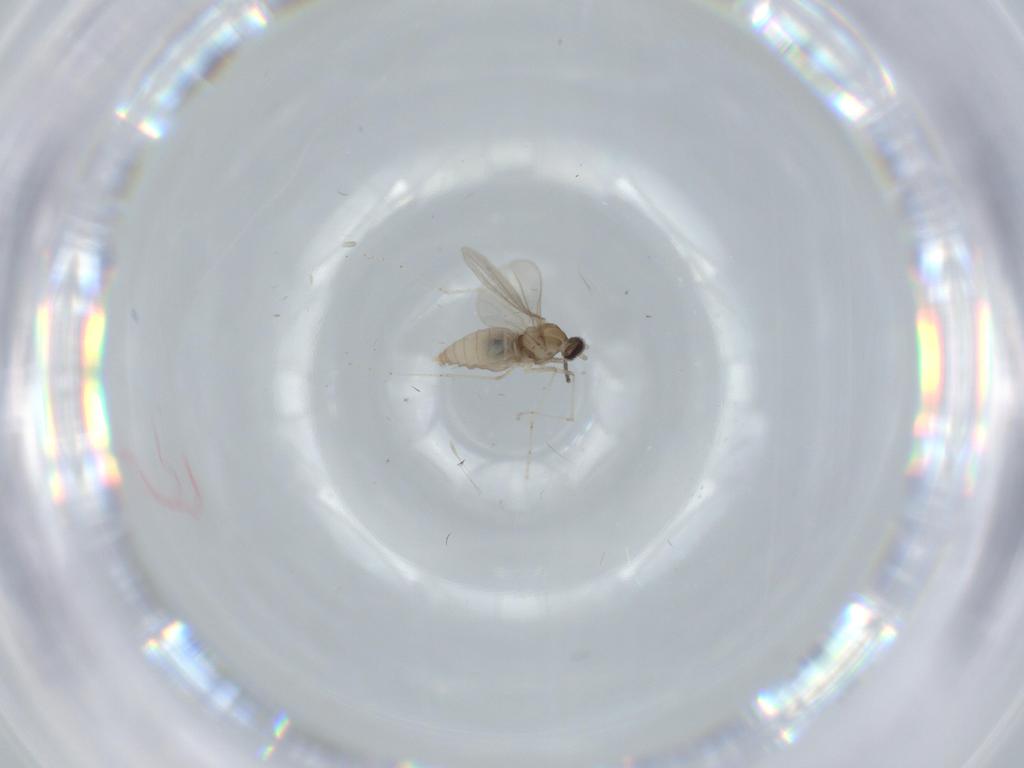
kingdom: Animalia
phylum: Arthropoda
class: Insecta
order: Diptera
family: Cecidomyiidae
